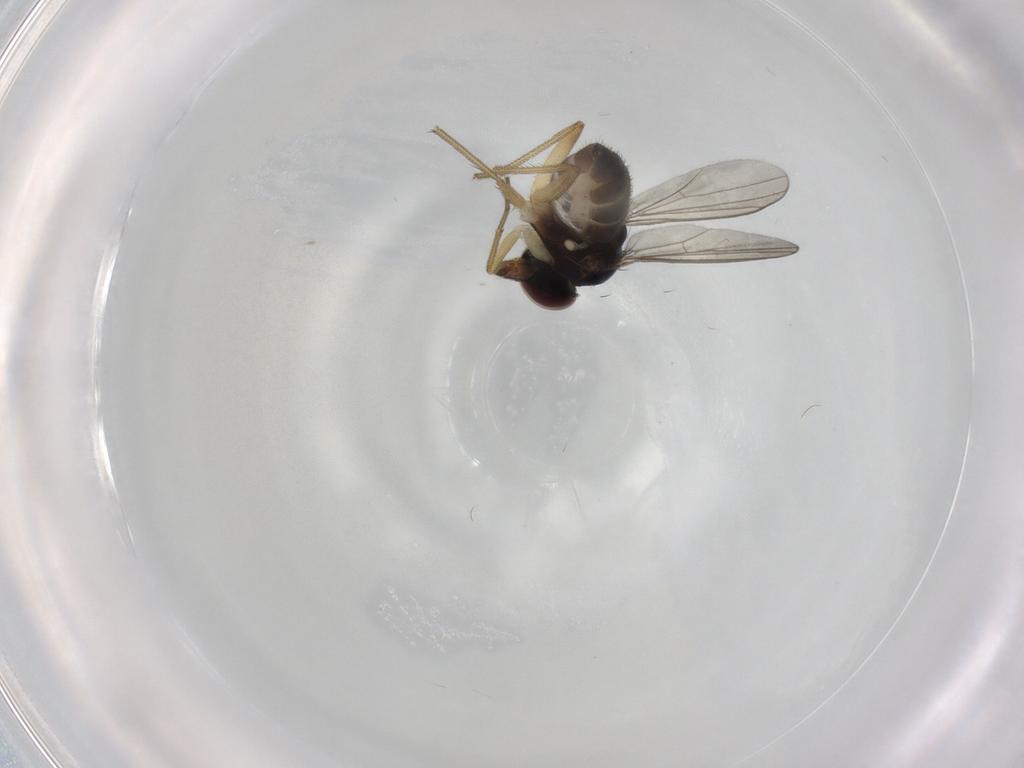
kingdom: Animalia
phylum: Arthropoda
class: Insecta
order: Diptera
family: Dolichopodidae
